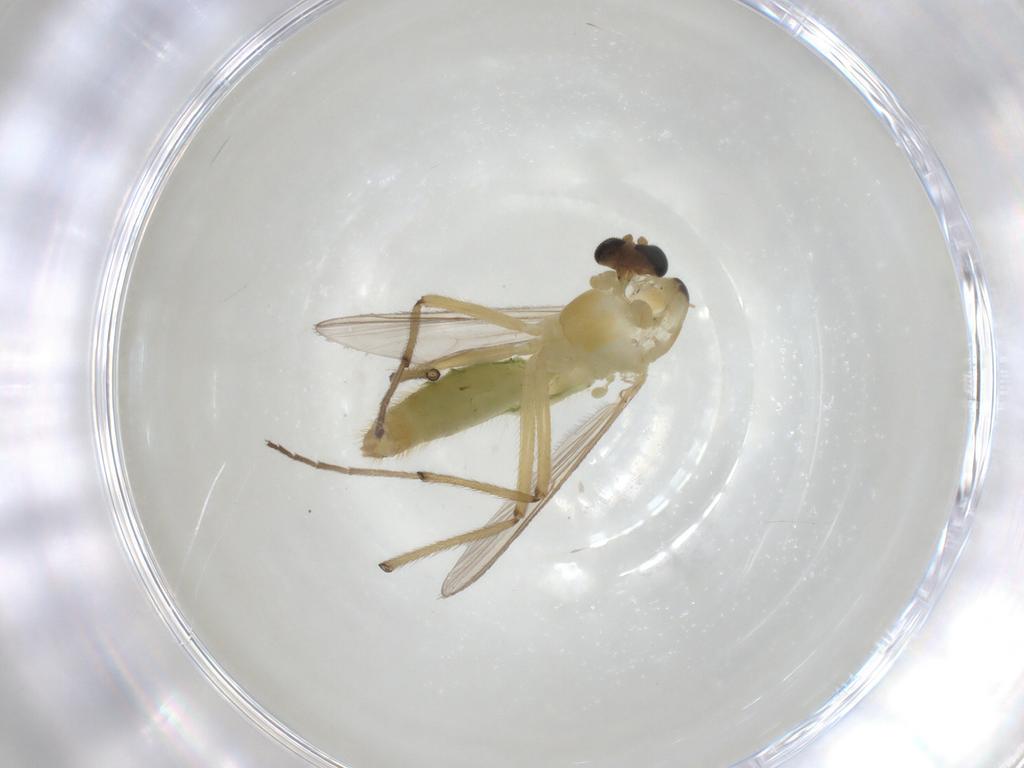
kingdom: Animalia
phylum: Arthropoda
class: Insecta
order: Diptera
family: Chironomidae
